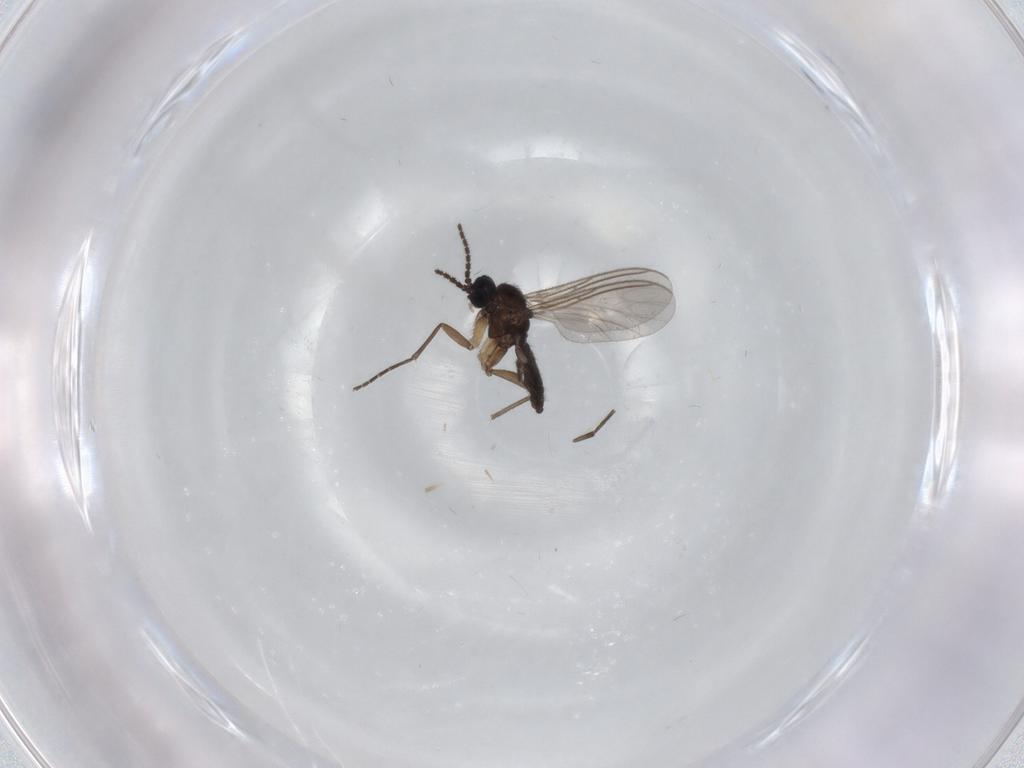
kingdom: Animalia
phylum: Arthropoda
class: Insecta
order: Diptera
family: Sciaridae
